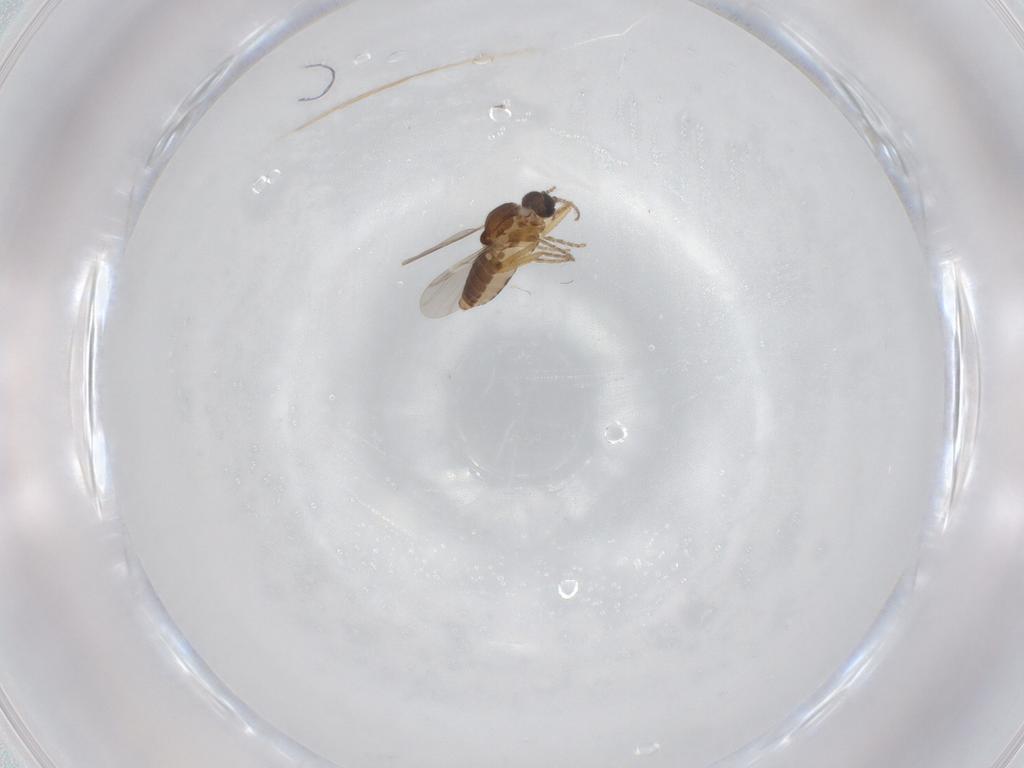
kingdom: Animalia
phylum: Arthropoda
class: Insecta
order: Diptera
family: Ceratopogonidae
